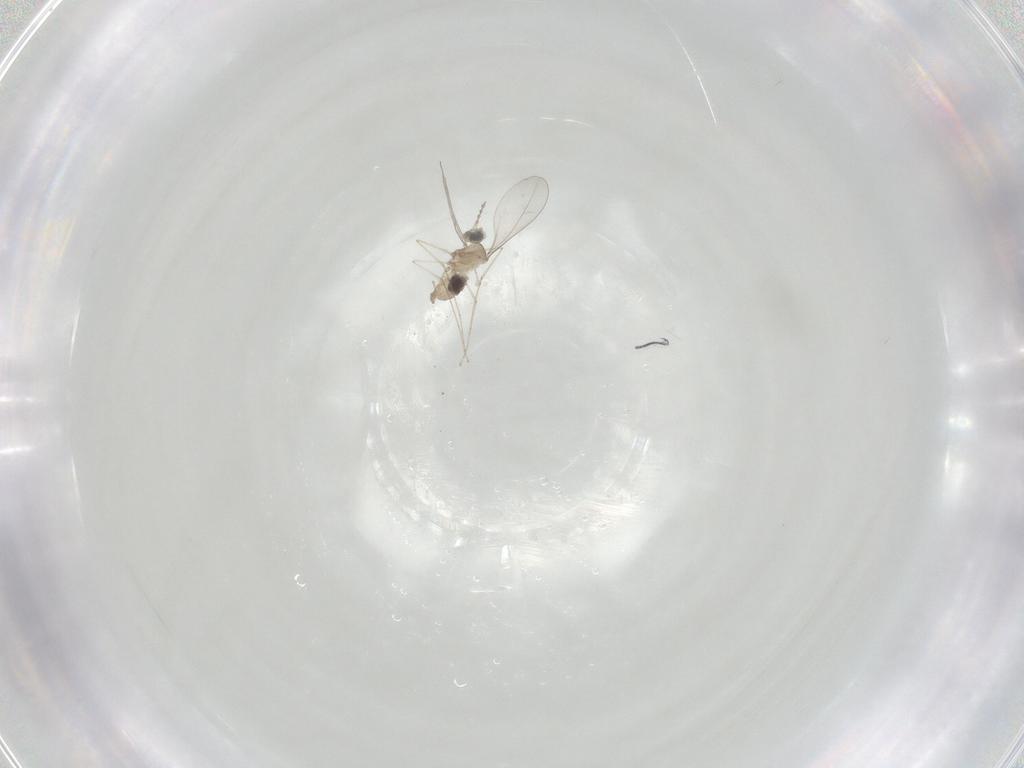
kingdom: Animalia
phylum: Arthropoda
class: Insecta
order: Diptera
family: Cecidomyiidae
